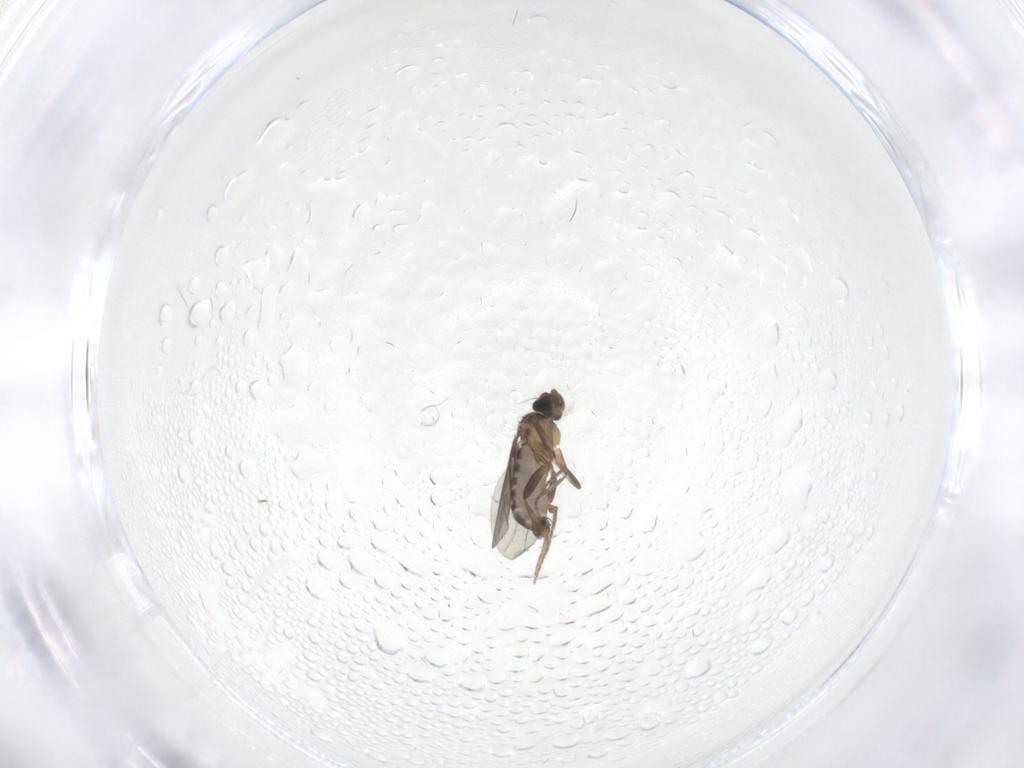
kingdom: Animalia
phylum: Arthropoda
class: Insecta
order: Diptera
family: Cecidomyiidae
